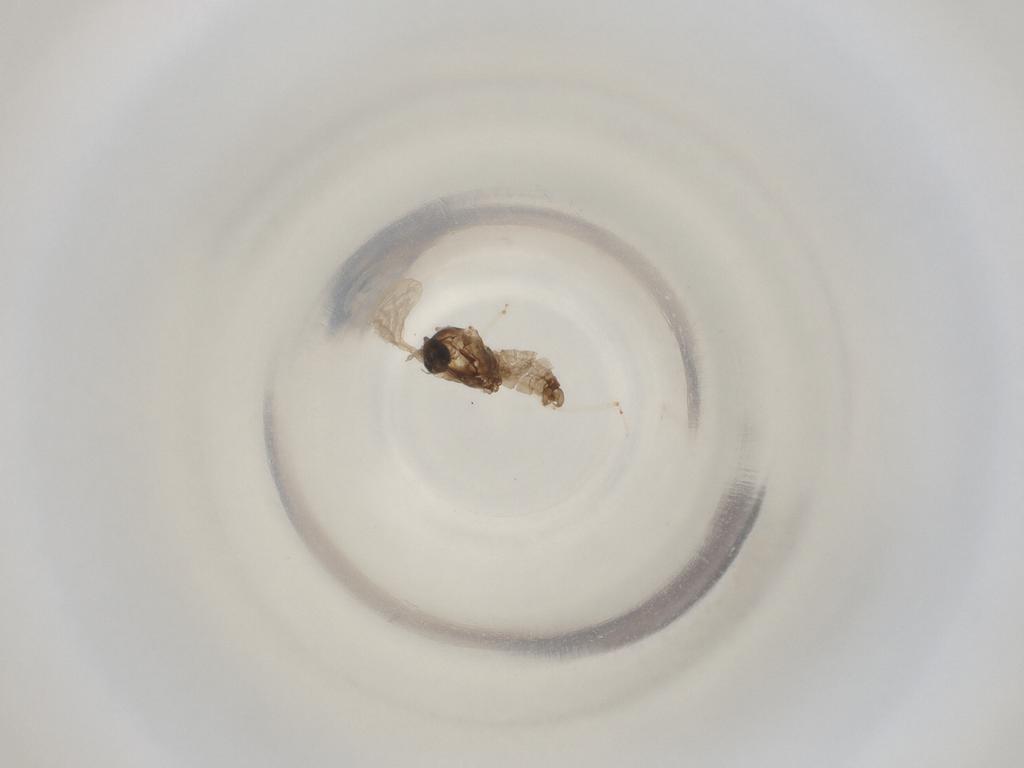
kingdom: Animalia
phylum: Arthropoda
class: Insecta
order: Diptera
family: Cecidomyiidae
